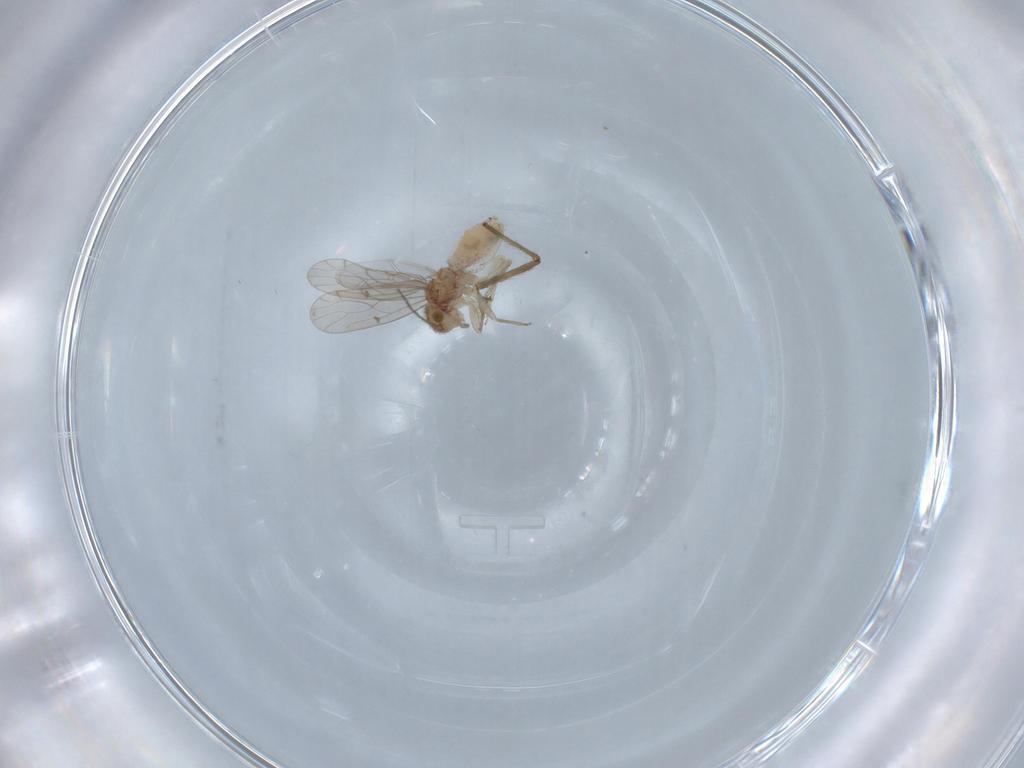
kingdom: Animalia
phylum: Arthropoda
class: Insecta
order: Psocodea
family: Ectopsocidae
